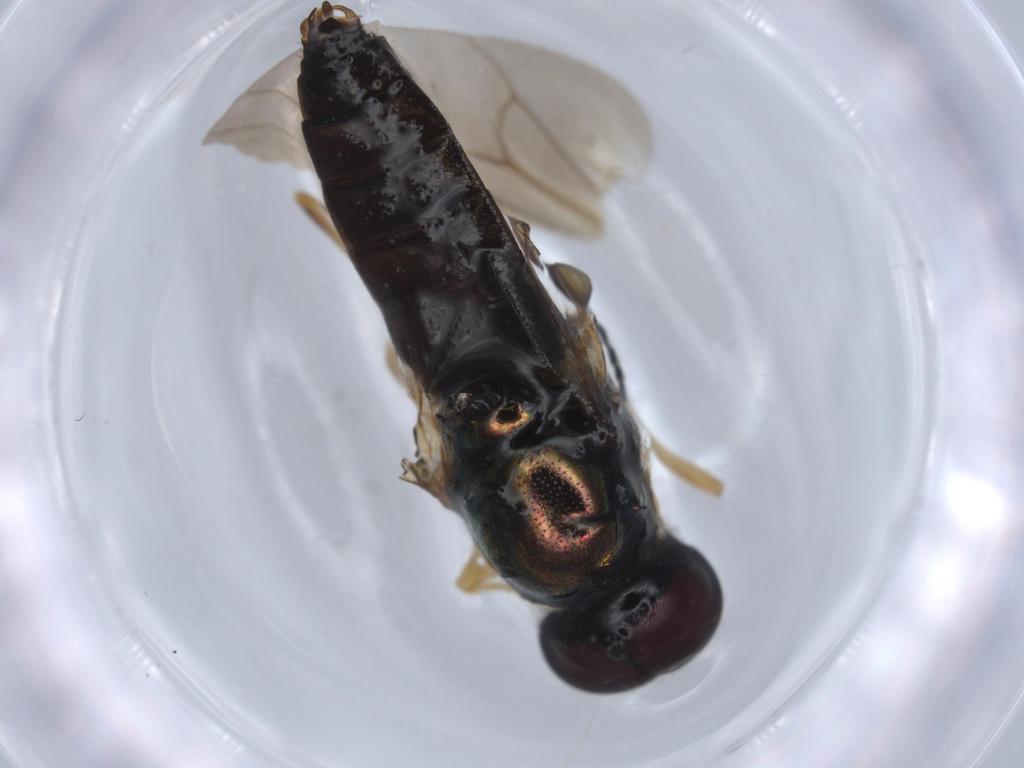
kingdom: Animalia
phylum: Arthropoda
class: Insecta
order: Diptera
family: Stratiomyidae
